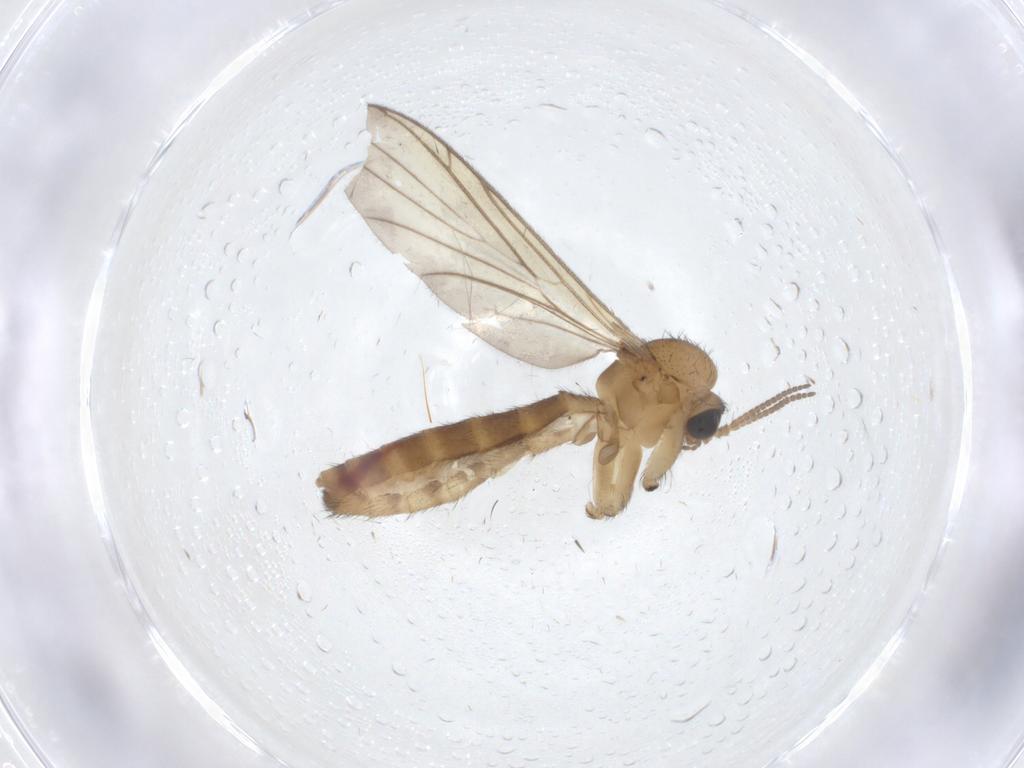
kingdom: Animalia
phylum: Arthropoda
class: Insecta
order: Diptera
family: Keroplatidae
